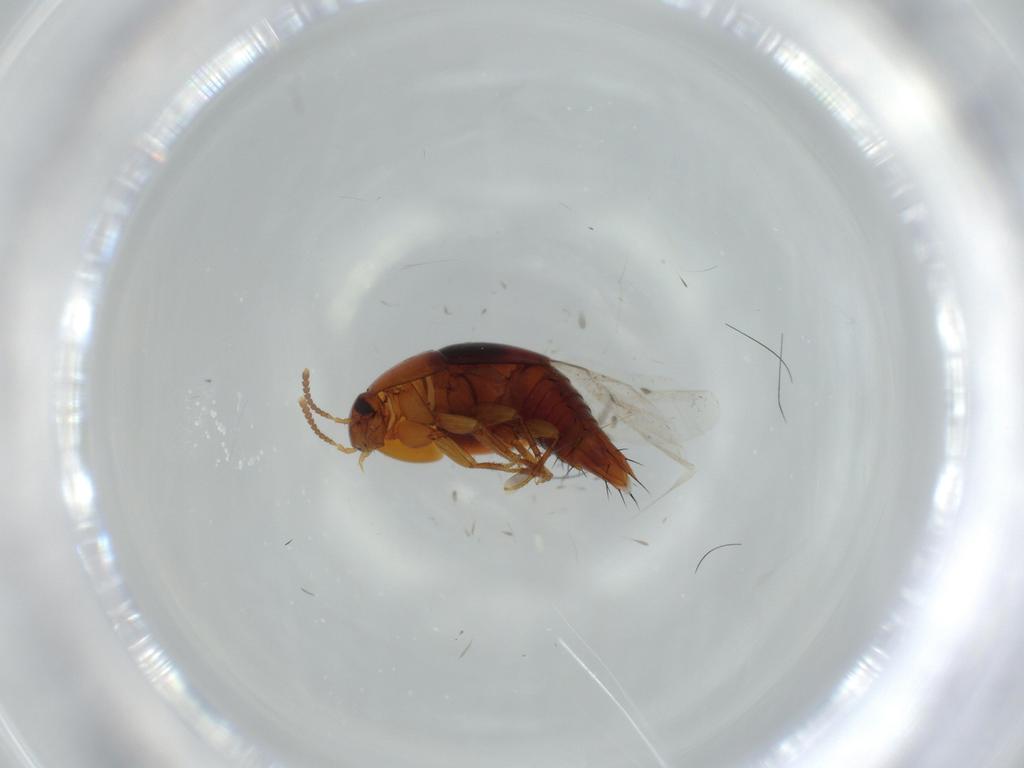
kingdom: Animalia
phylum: Arthropoda
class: Insecta
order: Coleoptera
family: Staphylinidae
